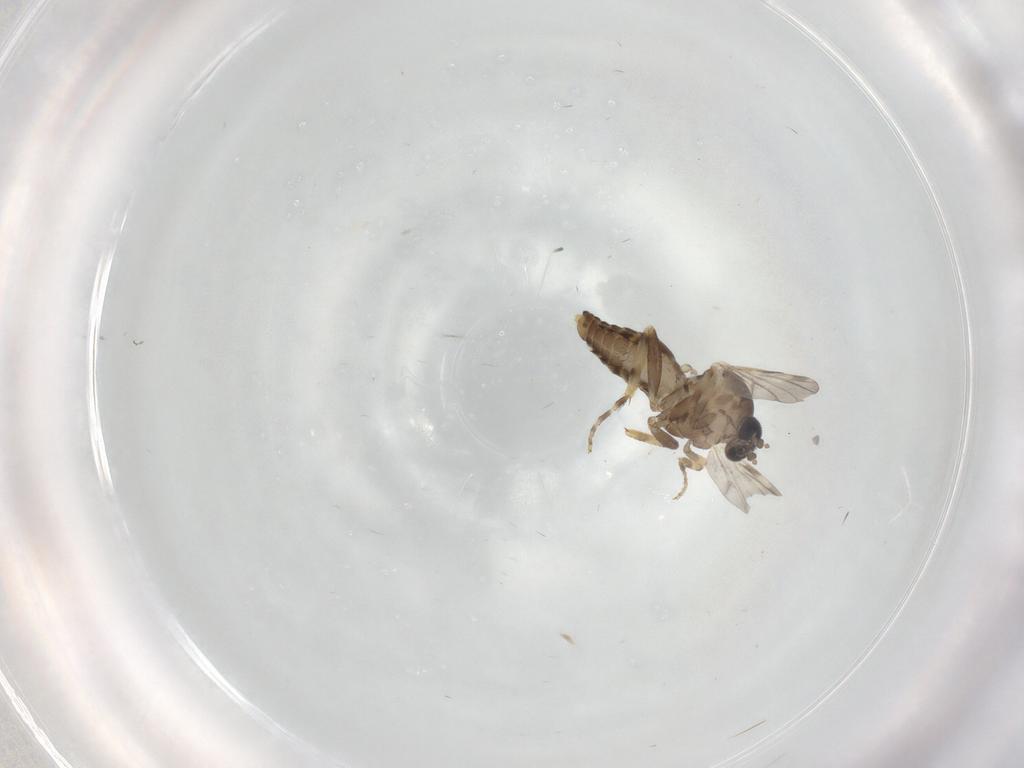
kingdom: Animalia
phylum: Arthropoda
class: Insecta
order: Diptera
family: Ceratopogonidae
